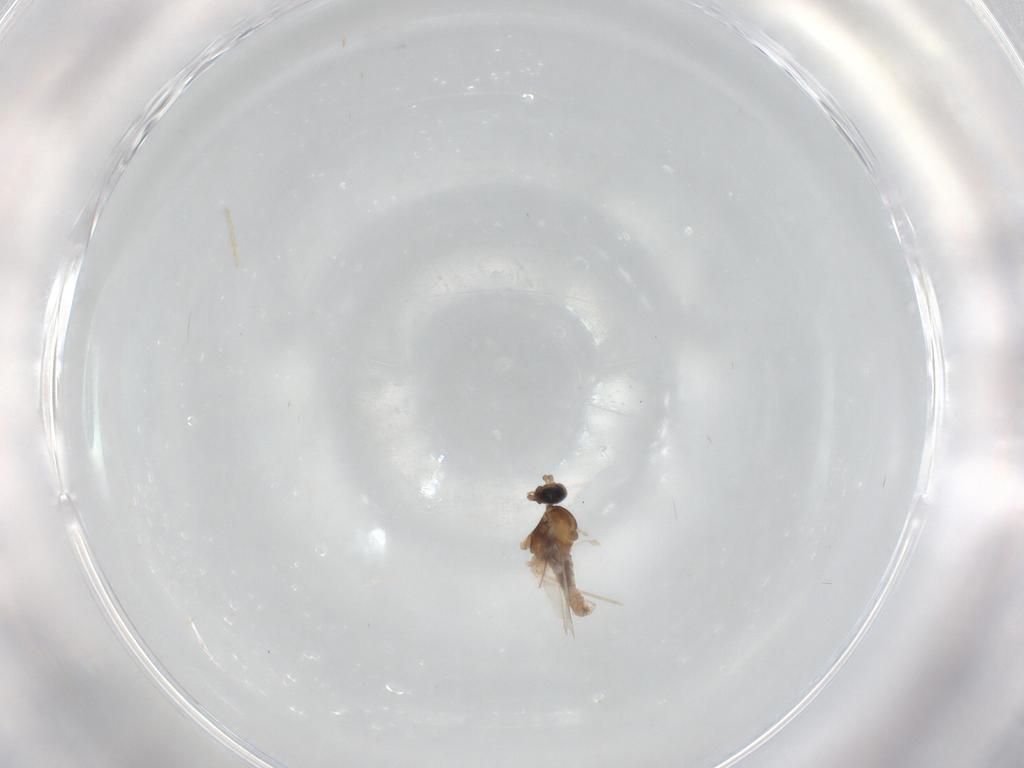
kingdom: Animalia
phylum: Arthropoda
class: Insecta
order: Diptera
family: Cecidomyiidae
